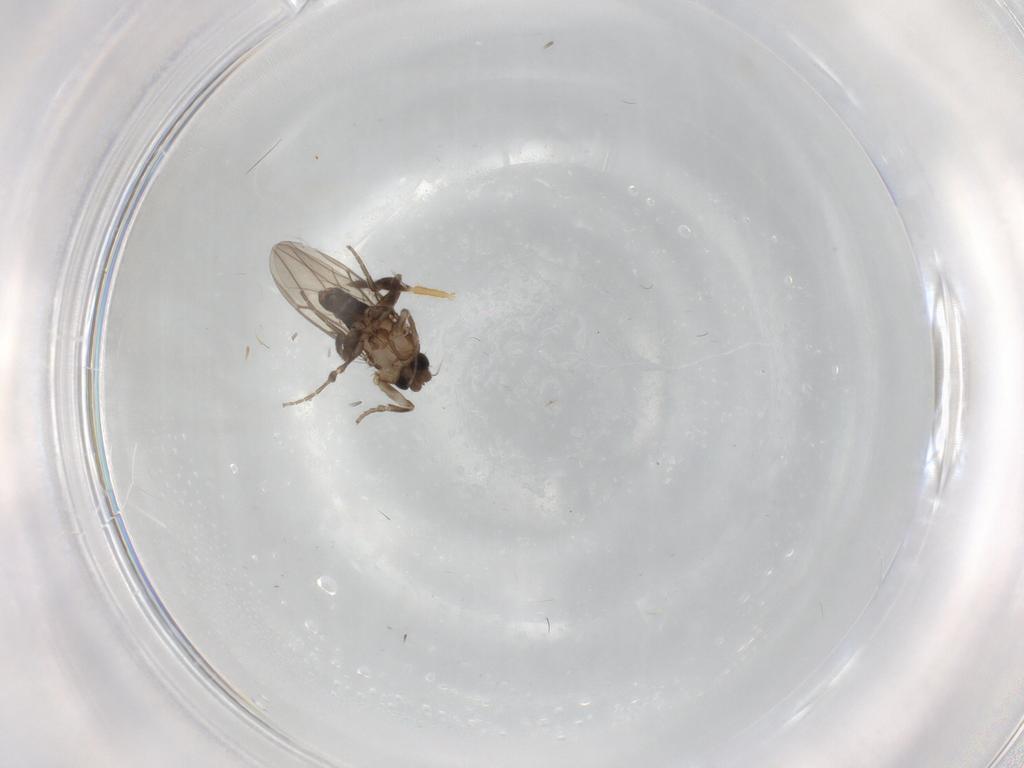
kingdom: Animalia
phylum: Arthropoda
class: Insecta
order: Diptera
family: Phoridae
